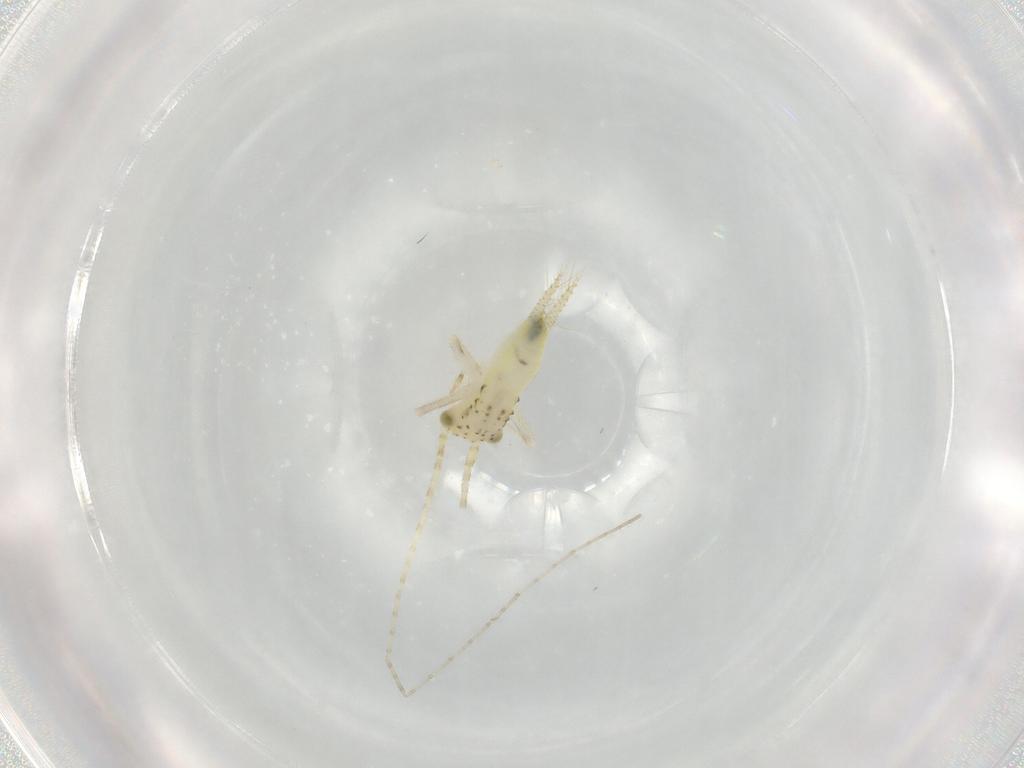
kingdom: Animalia
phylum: Arthropoda
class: Insecta
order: Orthoptera
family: Trigonidiidae
